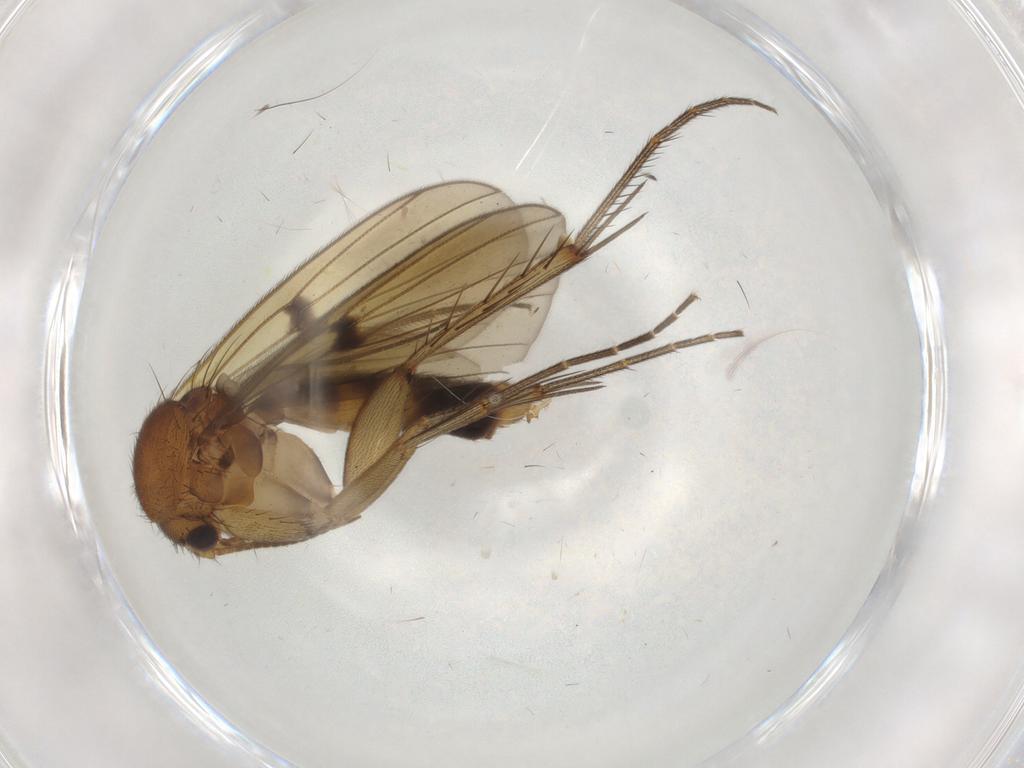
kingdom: Animalia
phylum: Arthropoda
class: Insecta
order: Diptera
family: Mycetophilidae
